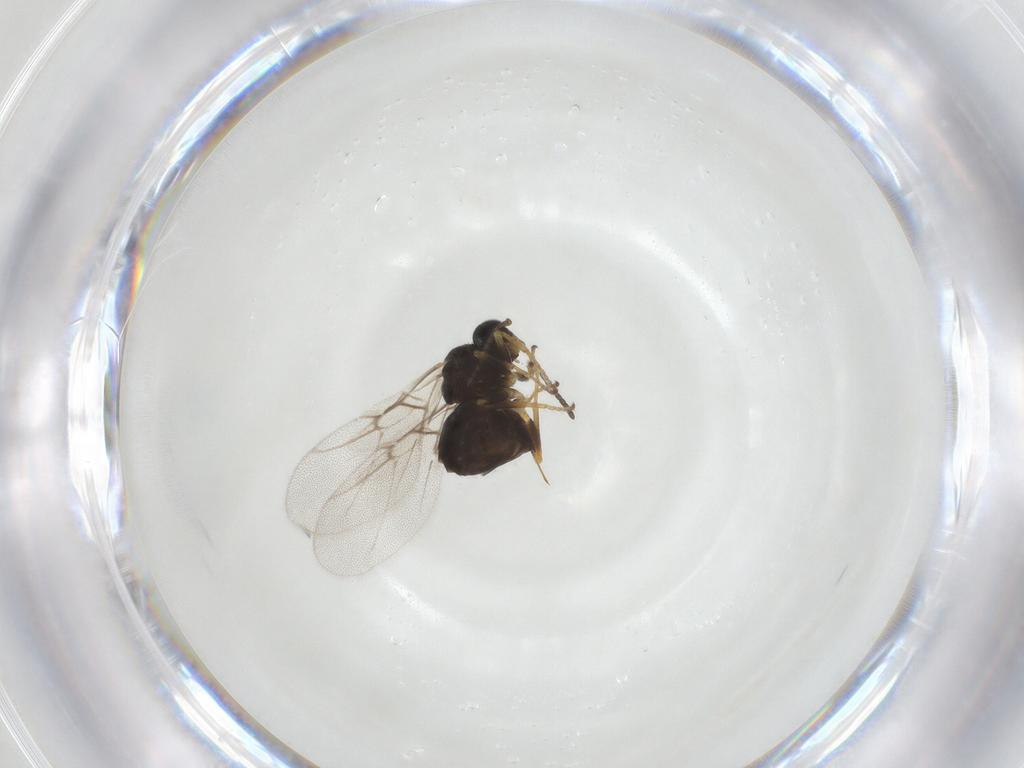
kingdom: Animalia
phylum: Arthropoda
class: Insecta
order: Hymenoptera
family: Cynipidae
